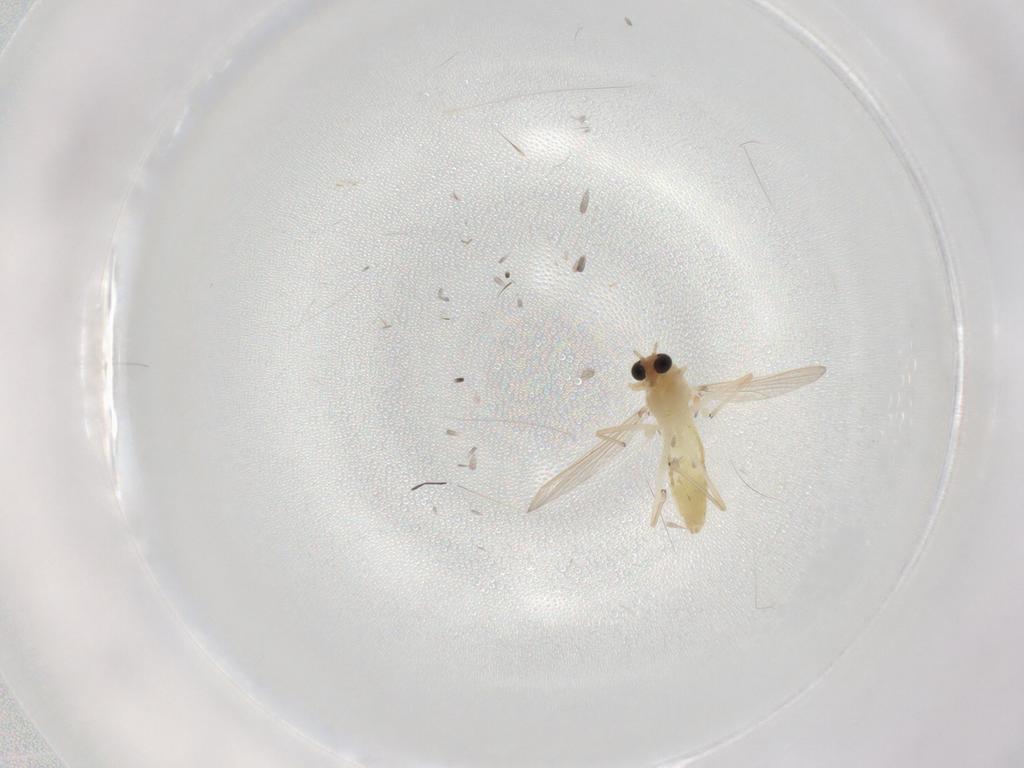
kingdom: Animalia
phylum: Arthropoda
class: Insecta
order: Diptera
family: Chironomidae
